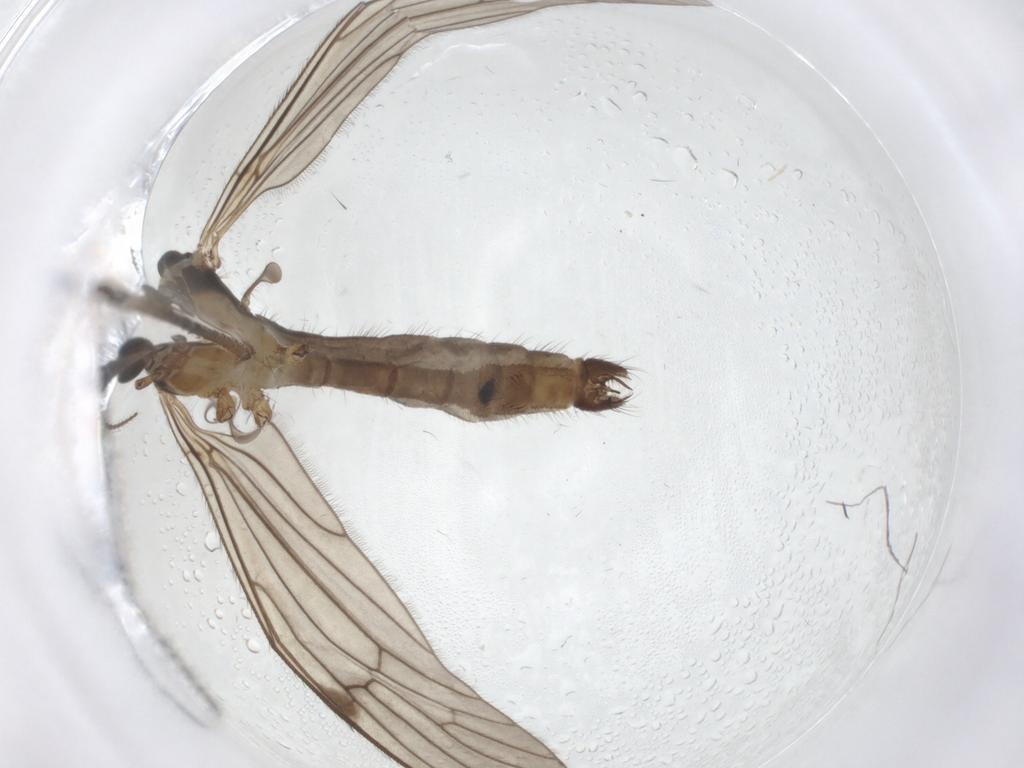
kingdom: Animalia
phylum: Arthropoda
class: Insecta
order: Diptera
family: Limoniidae
